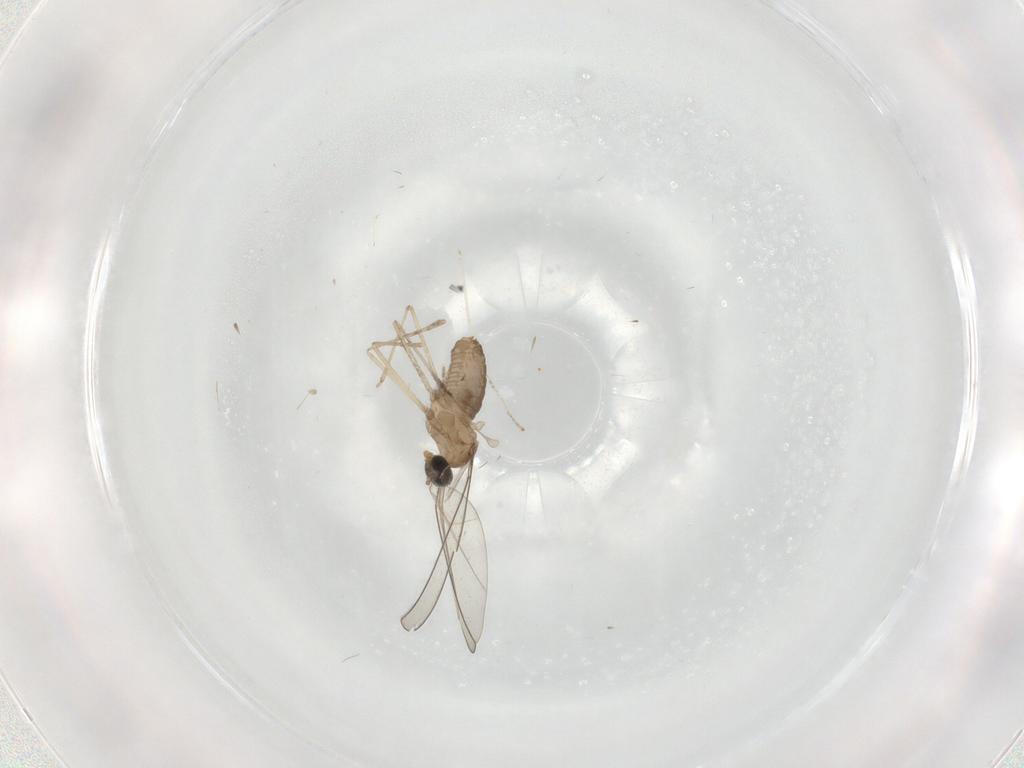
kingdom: Animalia
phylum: Arthropoda
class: Insecta
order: Diptera
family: Cecidomyiidae
